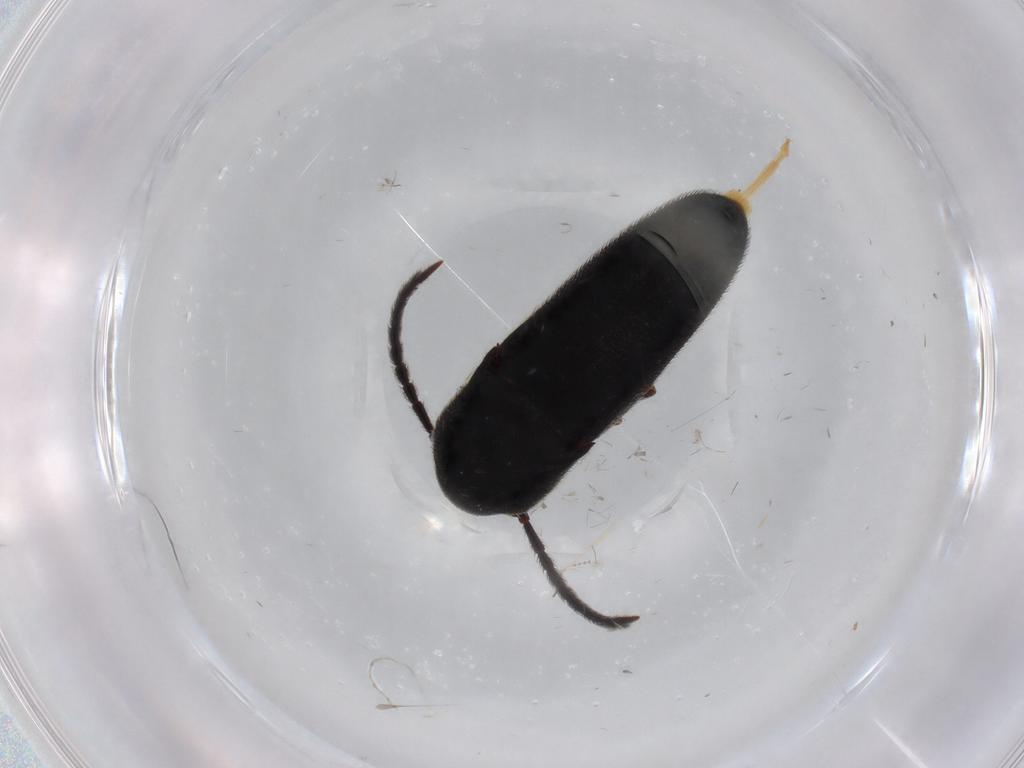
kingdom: Animalia
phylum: Arthropoda
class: Insecta
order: Coleoptera
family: Eucnemidae
